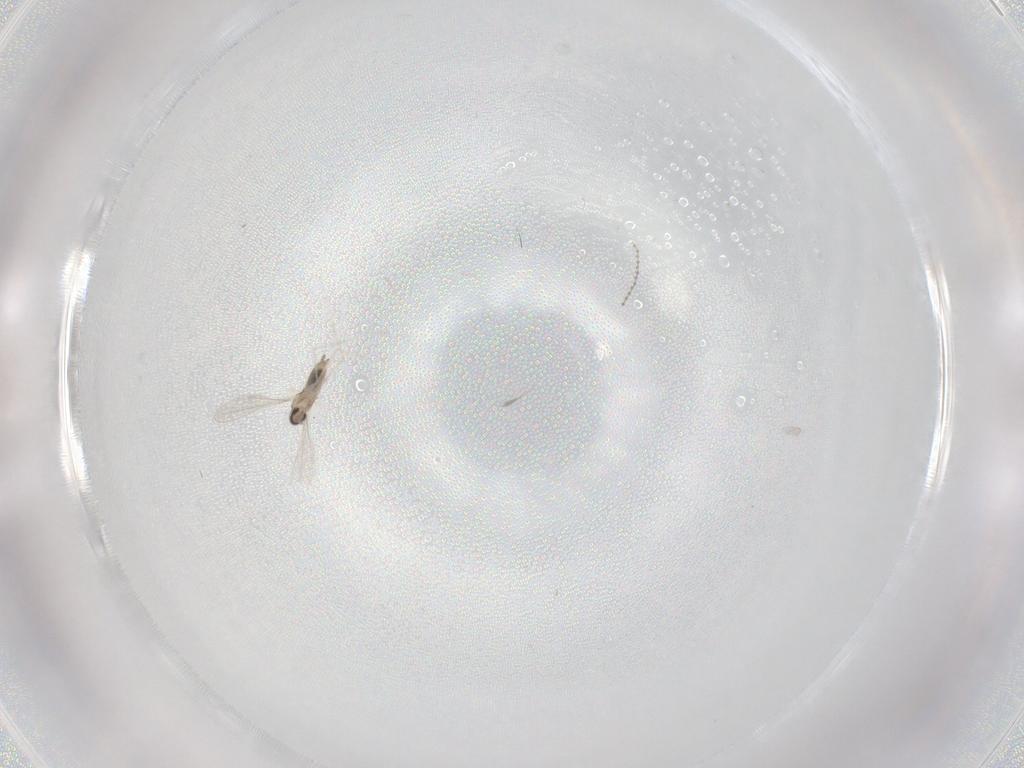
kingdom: Animalia
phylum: Arthropoda
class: Insecta
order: Diptera
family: Cecidomyiidae
